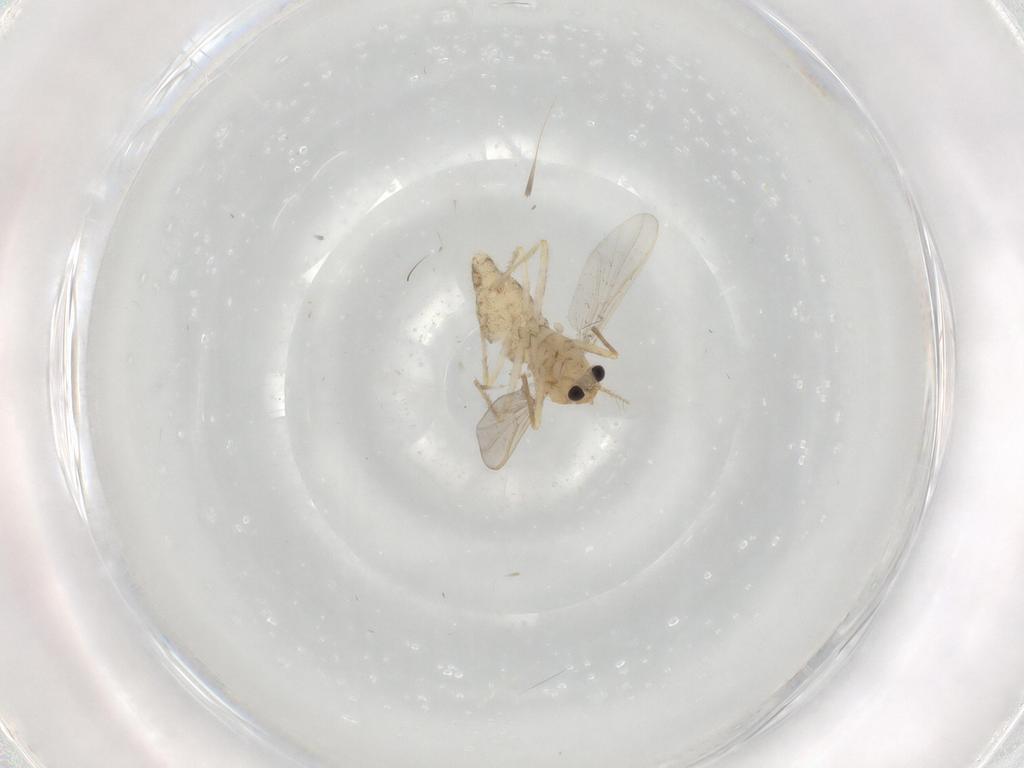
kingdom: Animalia
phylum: Arthropoda
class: Insecta
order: Diptera
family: Chironomidae
